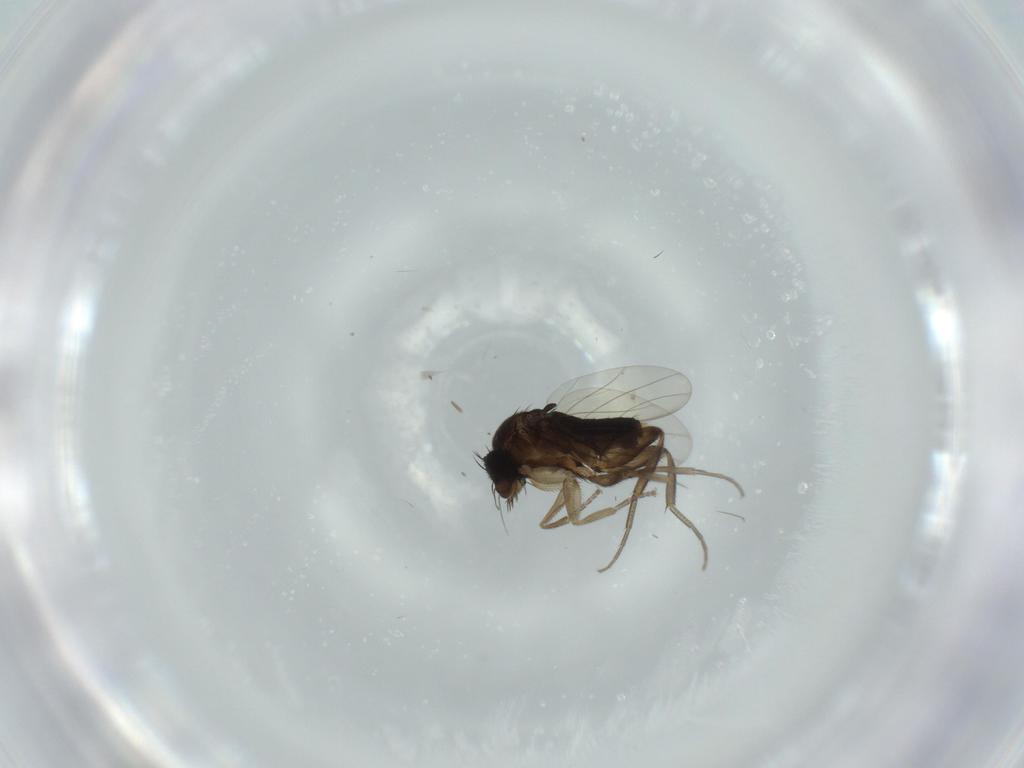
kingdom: Animalia
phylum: Arthropoda
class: Insecta
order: Diptera
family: Phoridae
